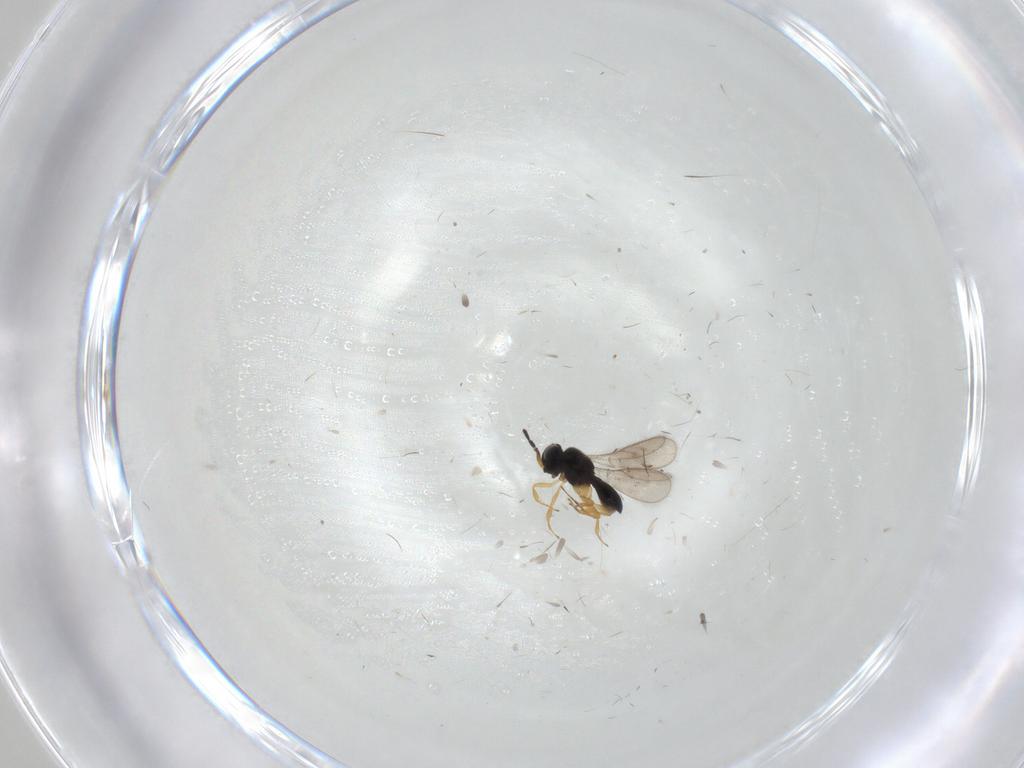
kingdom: Animalia
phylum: Arthropoda
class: Insecta
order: Hymenoptera
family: Scelionidae
